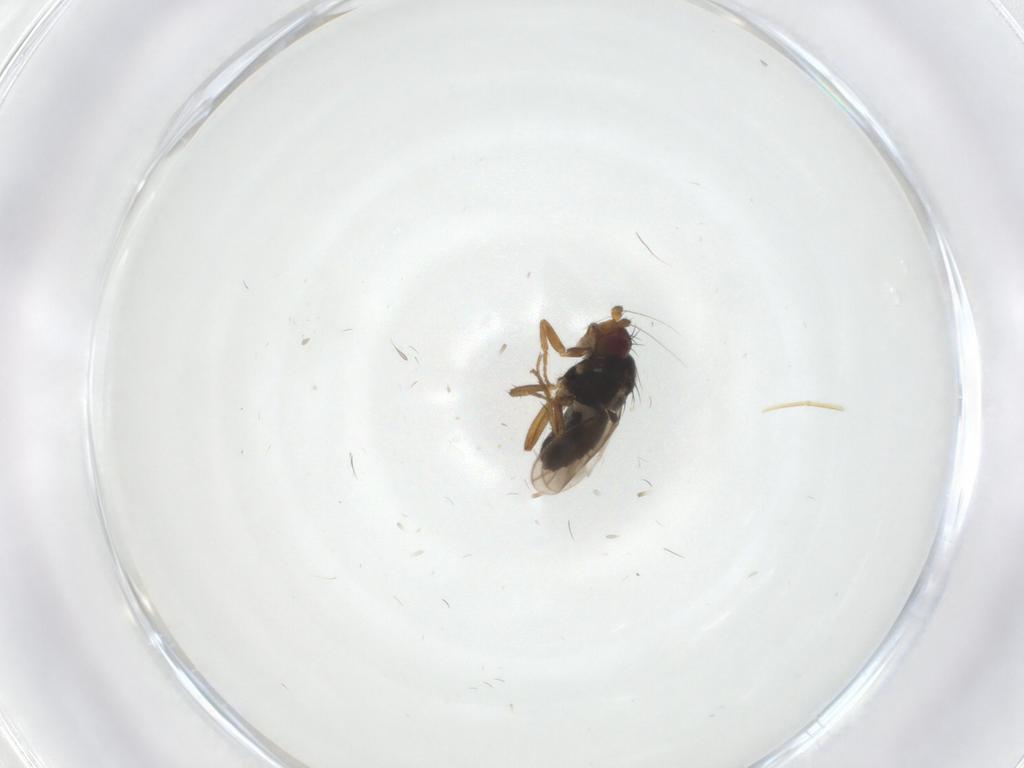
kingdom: Animalia
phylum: Arthropoda
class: Insecta
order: Diptera
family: Sphaeroceridae
